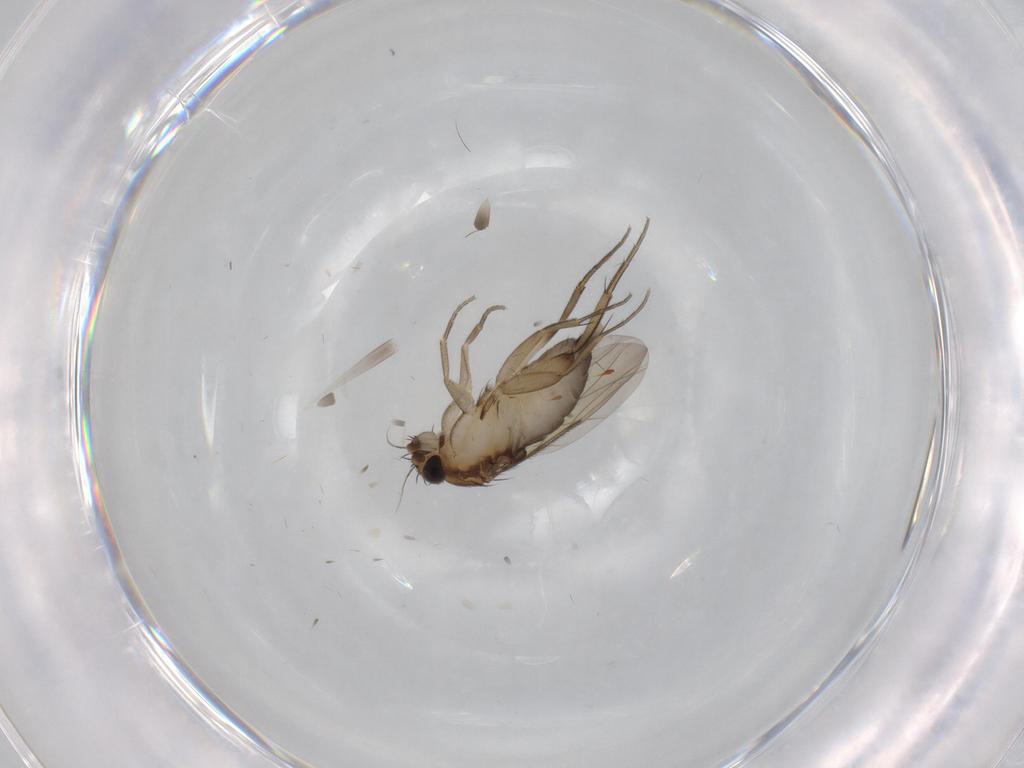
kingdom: Animalia
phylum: Arthropoda
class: Insecta
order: Diptera
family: Phoridae
